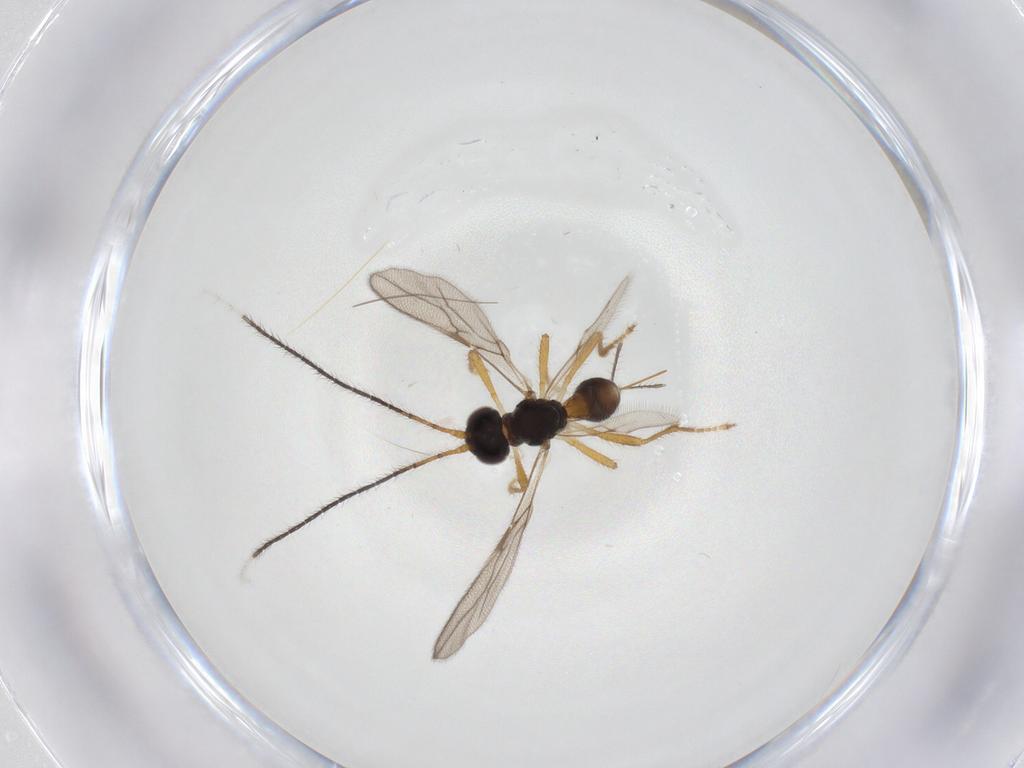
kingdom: Animalia
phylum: Arthropoda
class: Insecta
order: Hymenoptera
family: Braconidae
